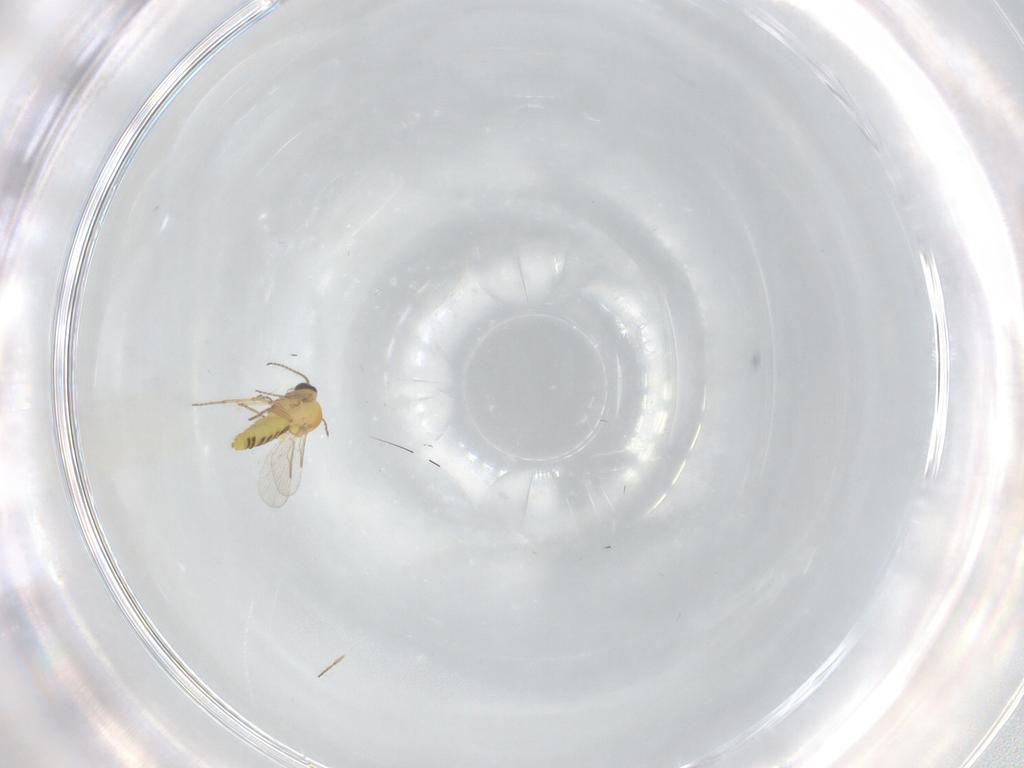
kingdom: Animalia
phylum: Arthropoda
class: Insecta
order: Diptera
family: Ceratopogonidae
